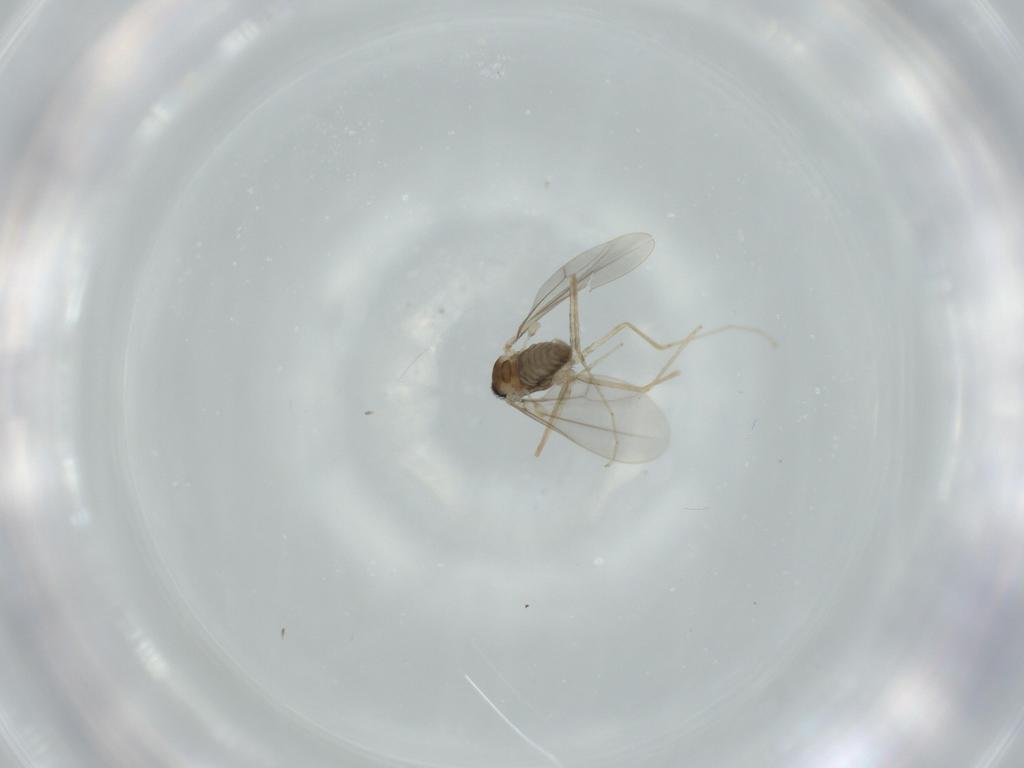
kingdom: Animalia
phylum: Arthropoda
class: Insecta
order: Diptera
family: Cecidomyiidae
